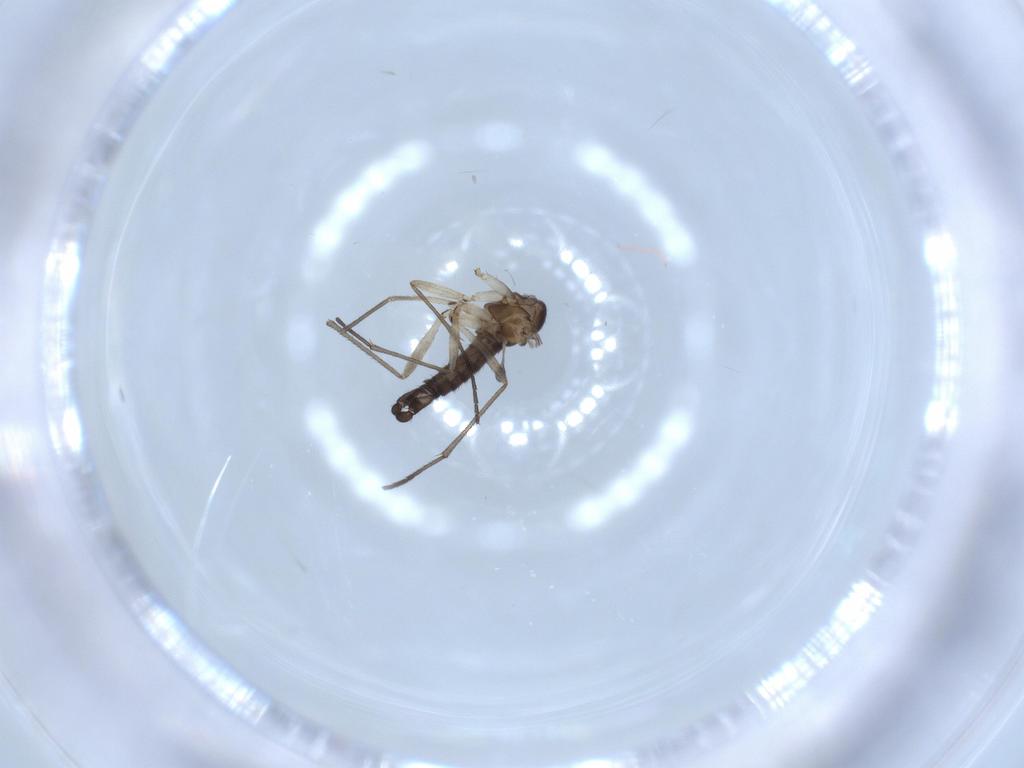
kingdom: Animalia
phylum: Arthropoda
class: Insecta
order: Diptera
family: Sciaridae
